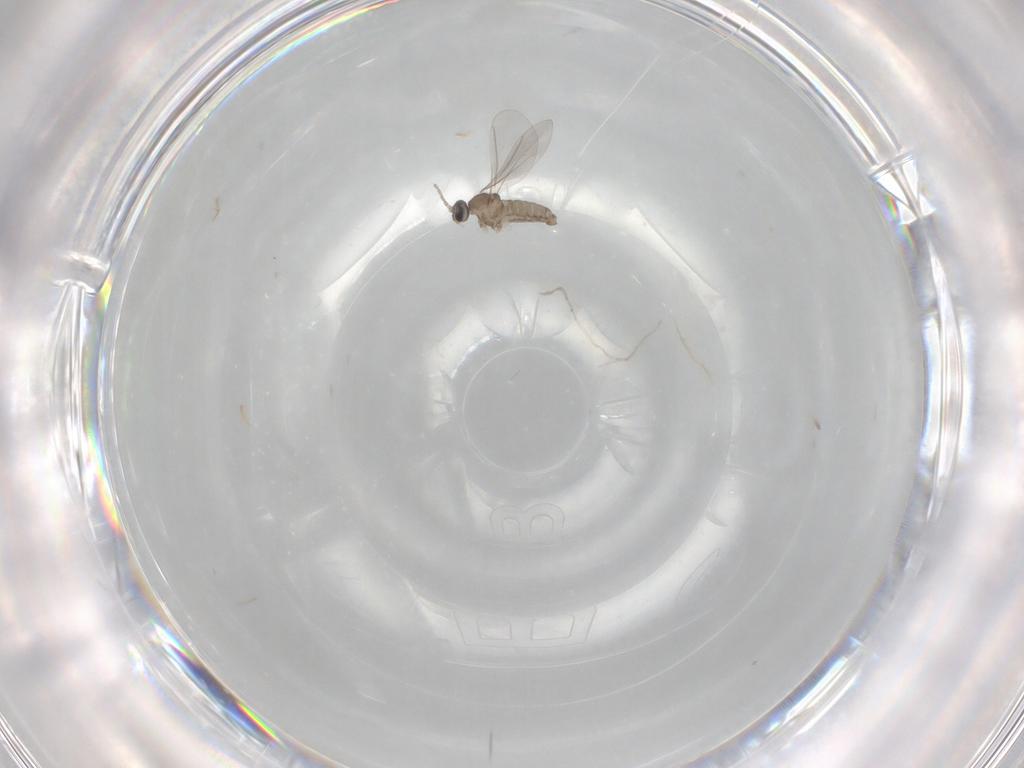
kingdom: Animalia
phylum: Arthropoda
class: Insecta
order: Diptera
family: Cecidomyiidae
